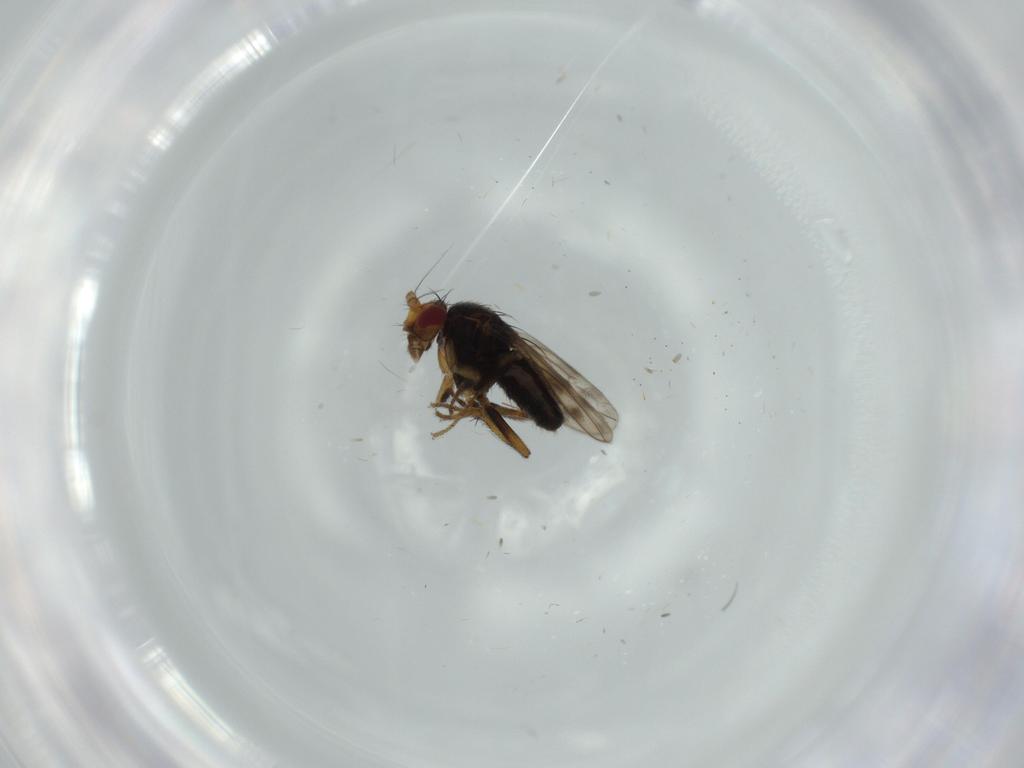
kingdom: Animalia
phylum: Arthropoda
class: Insecta
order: Diptera
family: Sphaeroceridae
